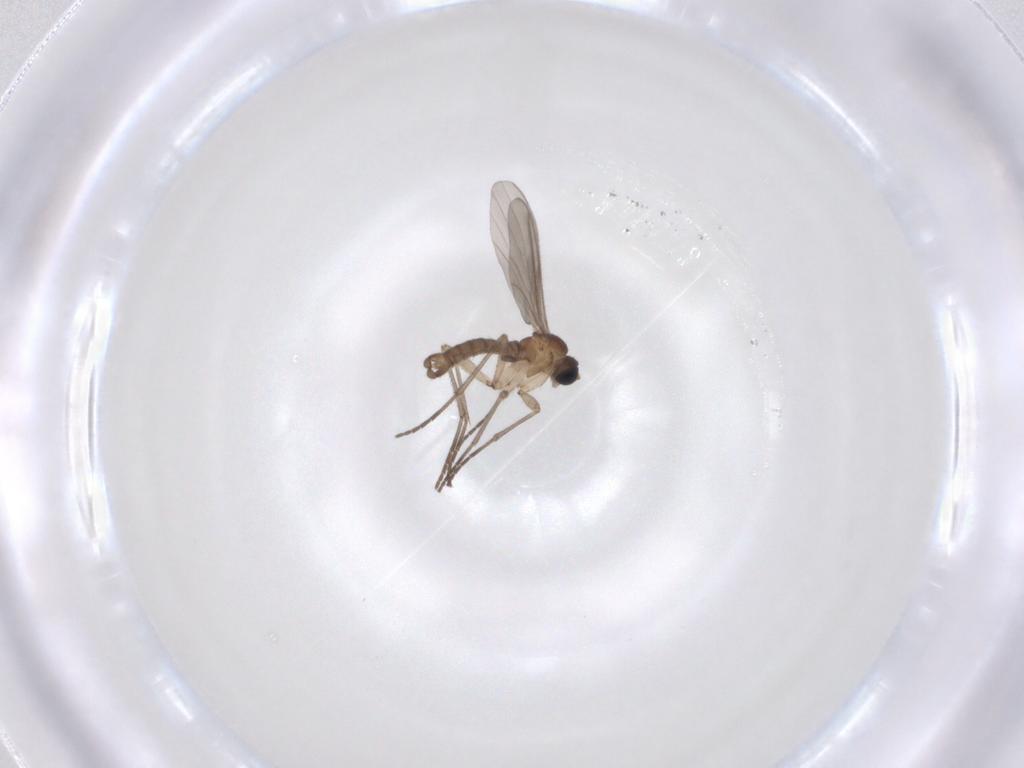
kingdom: Animalia
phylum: Arthropoda
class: Insecta
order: Diptera
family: Sciaridae
